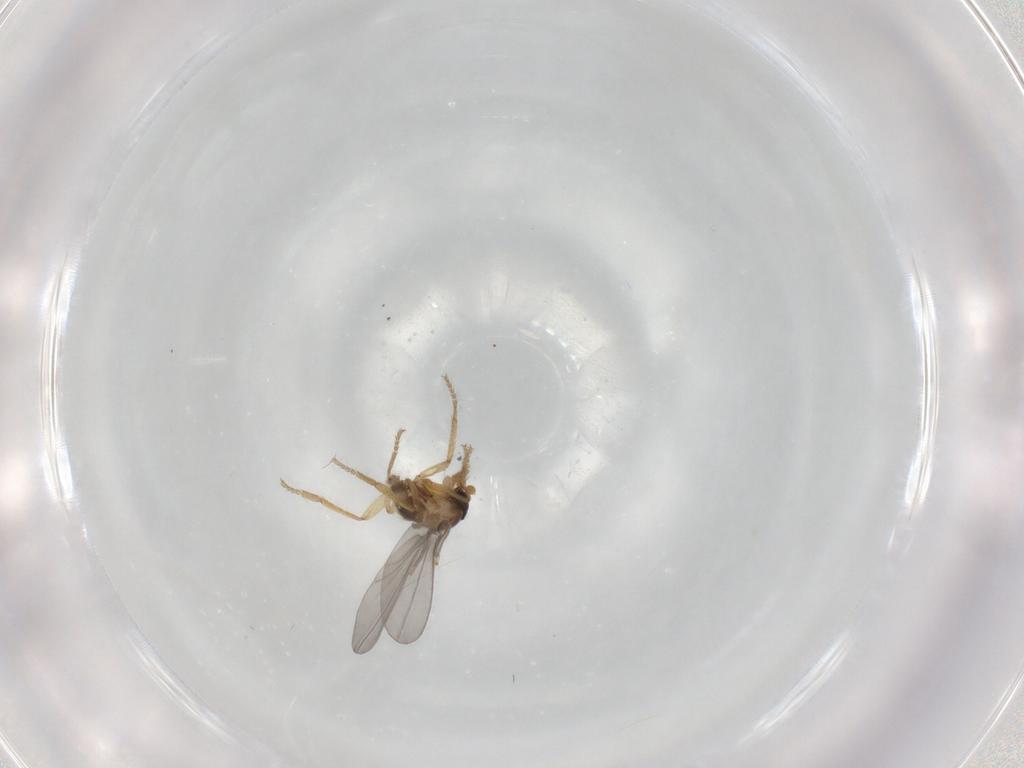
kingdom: Animalia
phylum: Arthropoda
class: Insecta
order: Diptera
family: Phoridae
